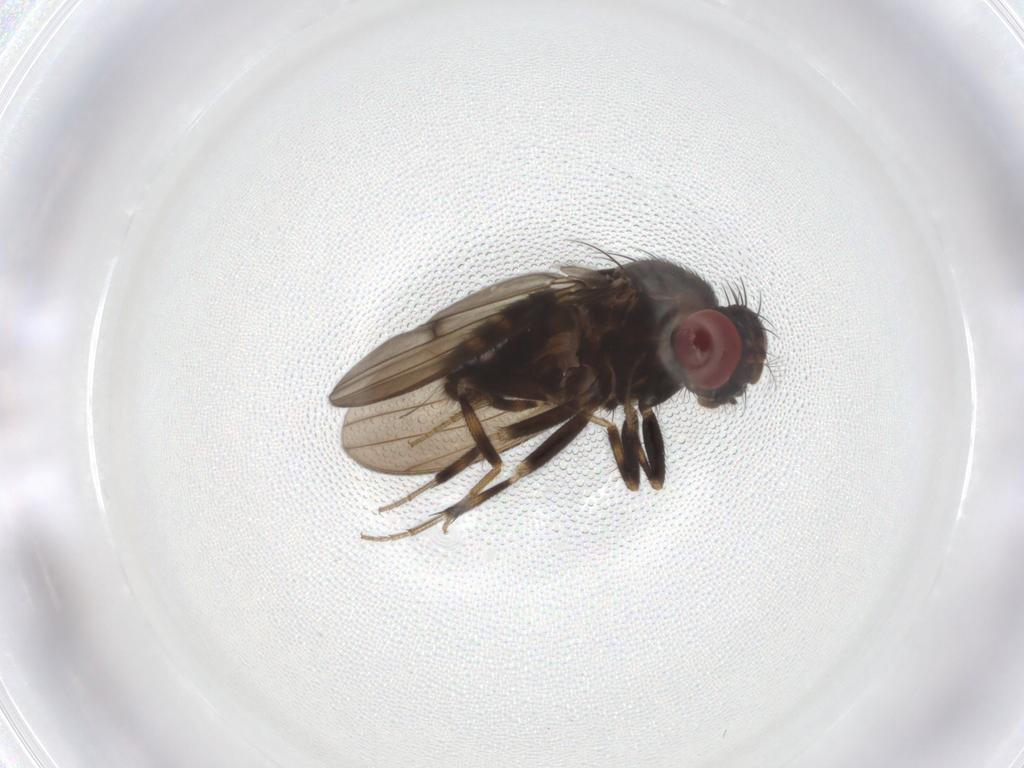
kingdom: Animalia
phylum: Arthropoda
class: Insecta
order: Diptera
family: Drosophilidae
